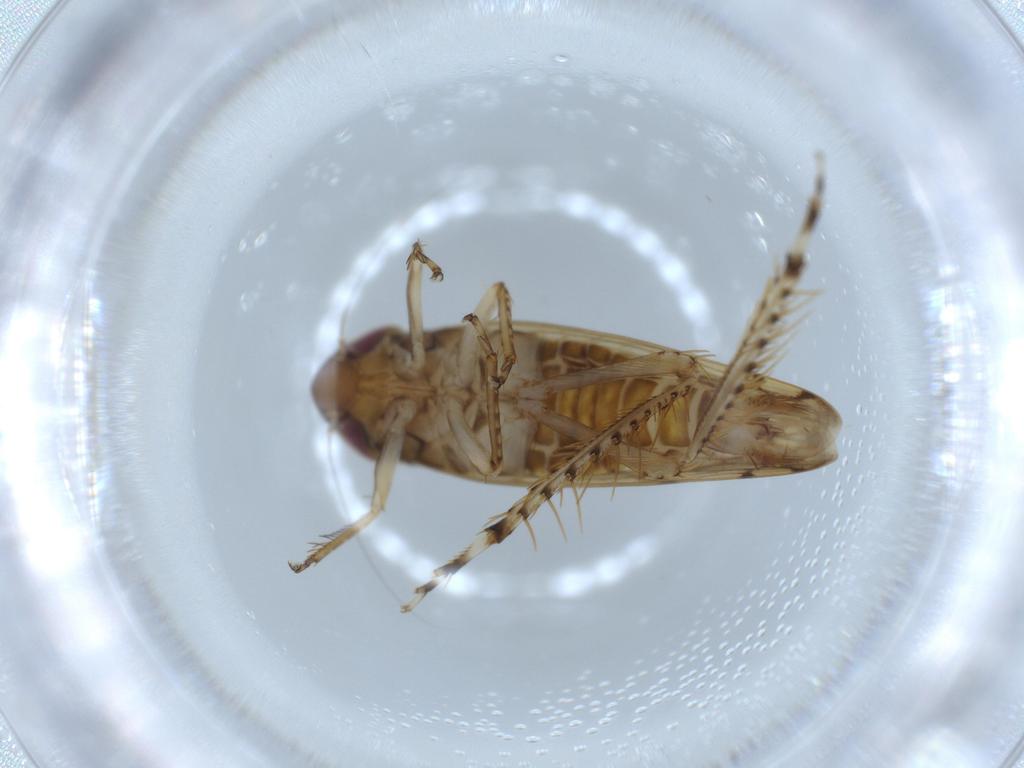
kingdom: Animalia
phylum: Arthropoda
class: Insecta
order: Hemiptera
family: Cicadellidae
